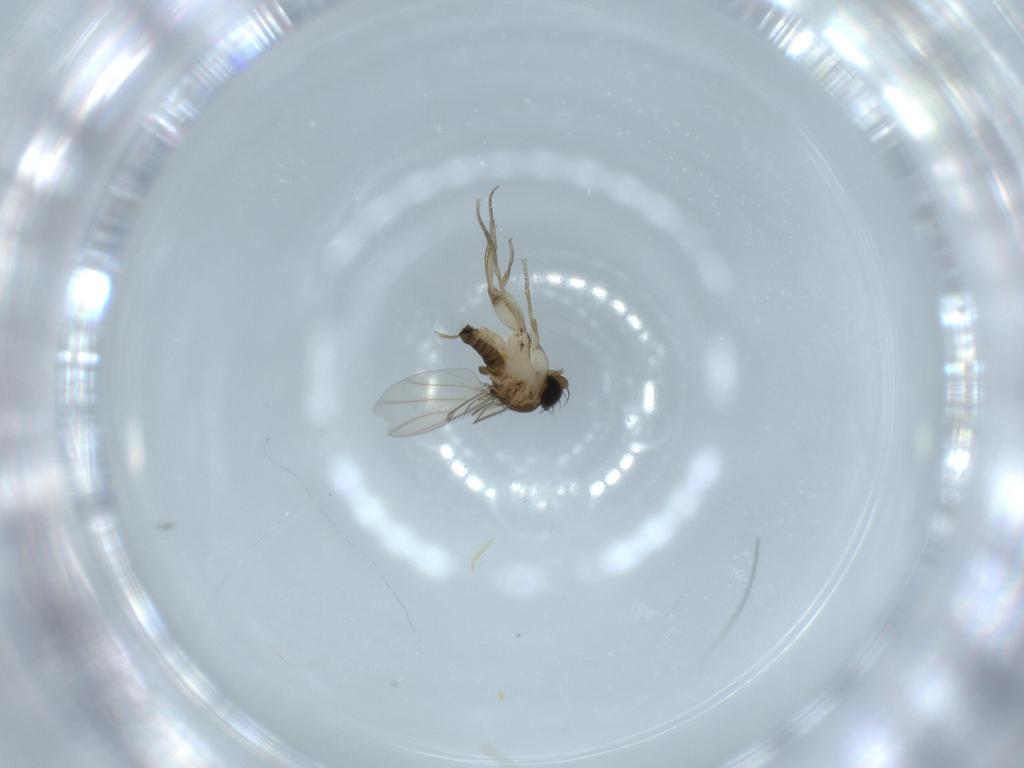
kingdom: Animalia
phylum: Arthropoda
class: Insecta
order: Diptera
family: Phoridae
